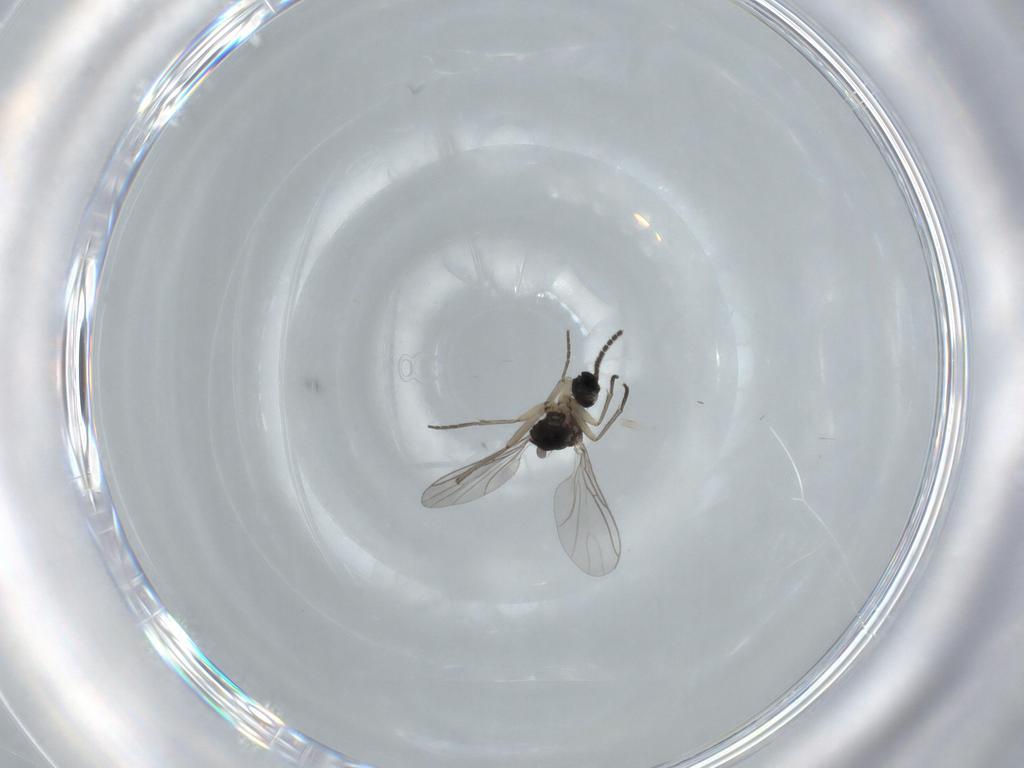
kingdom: Animalia
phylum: Arthropoda
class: Insecta
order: Diptera
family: Sciaridae
